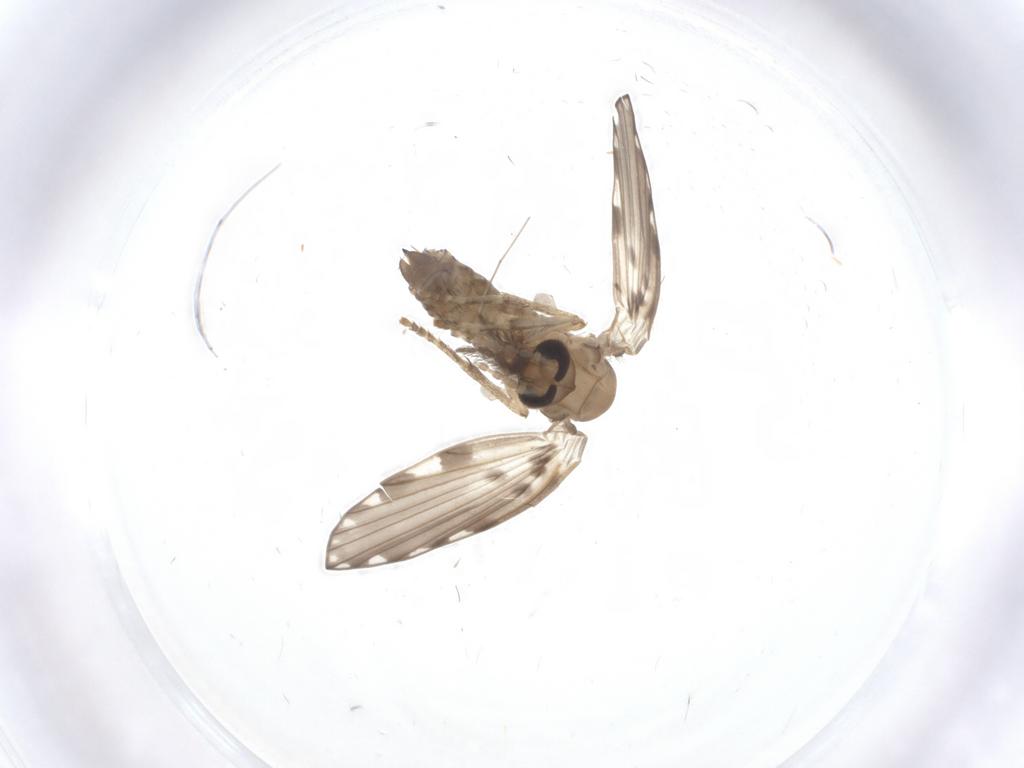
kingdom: Animalia
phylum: Arthropoda
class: Insecta
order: Diptera
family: Psychodidae
